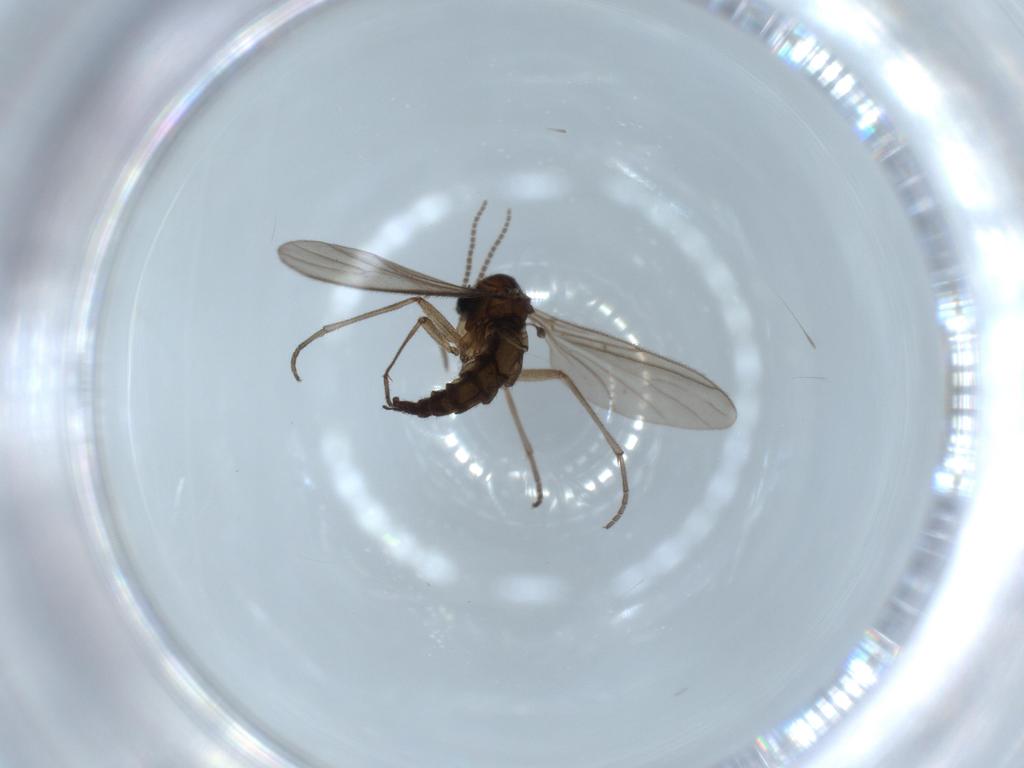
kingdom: Animalia
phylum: Arthropoda
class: Insecta
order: Diptera
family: Sciaridae
